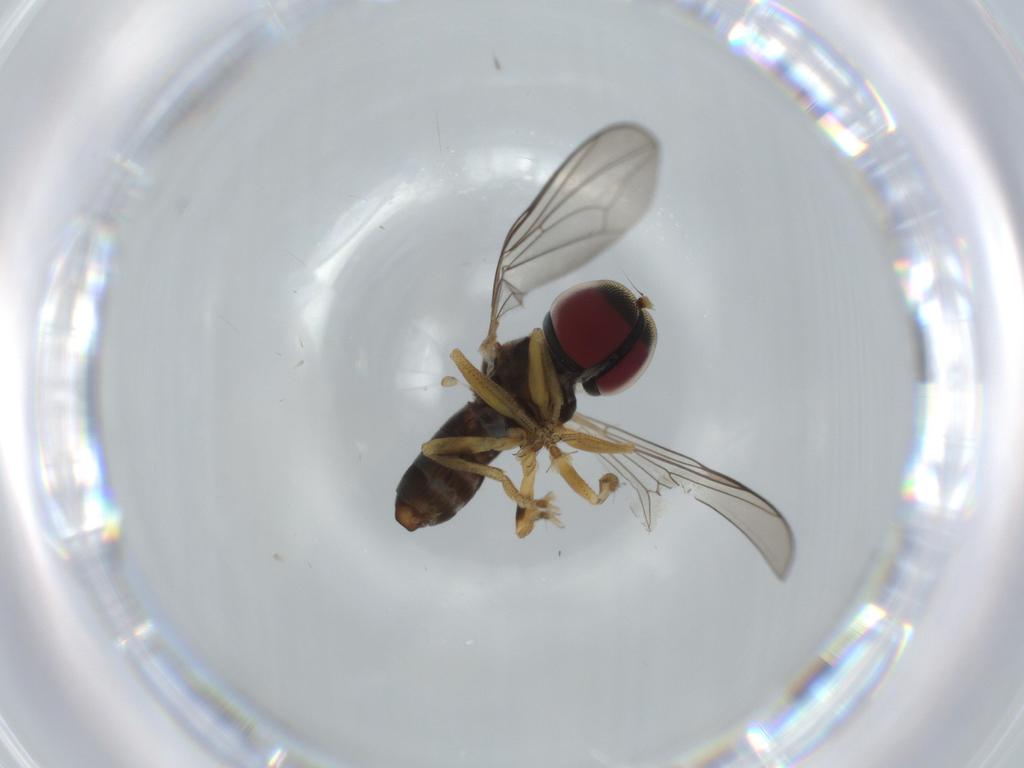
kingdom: Animalia
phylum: Arthropoda
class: Insecta
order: Diptera
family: Pipunculidae
